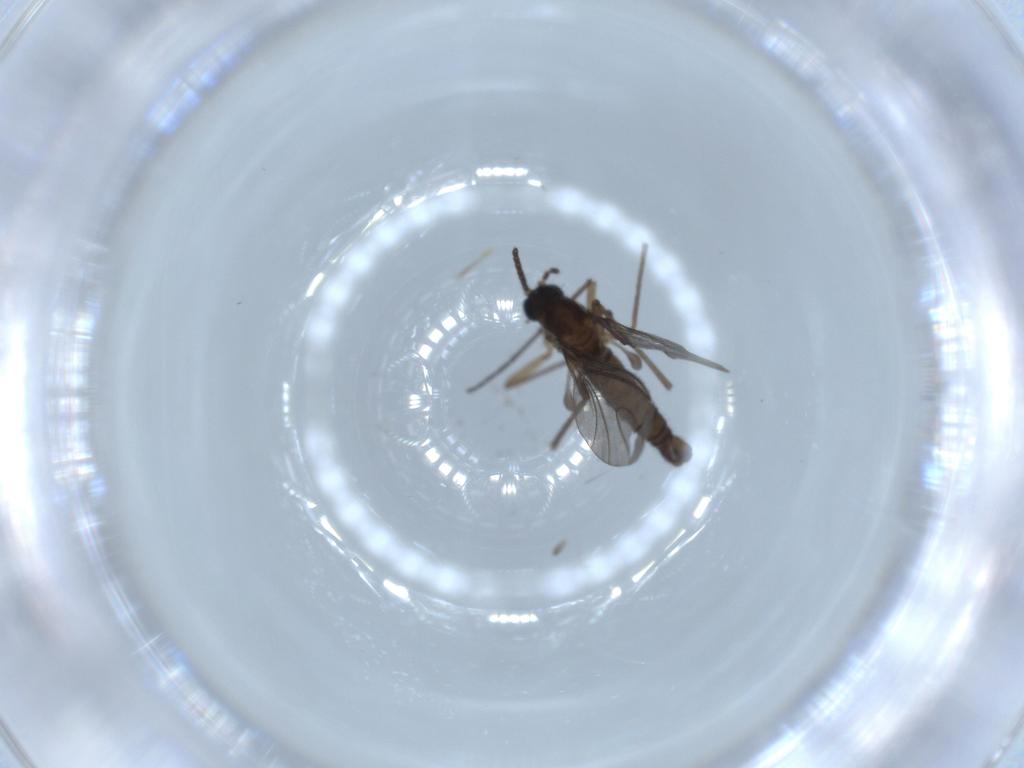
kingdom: Animalia
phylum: Arthropoda
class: Insecta
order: Diptera
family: Sciaridae
